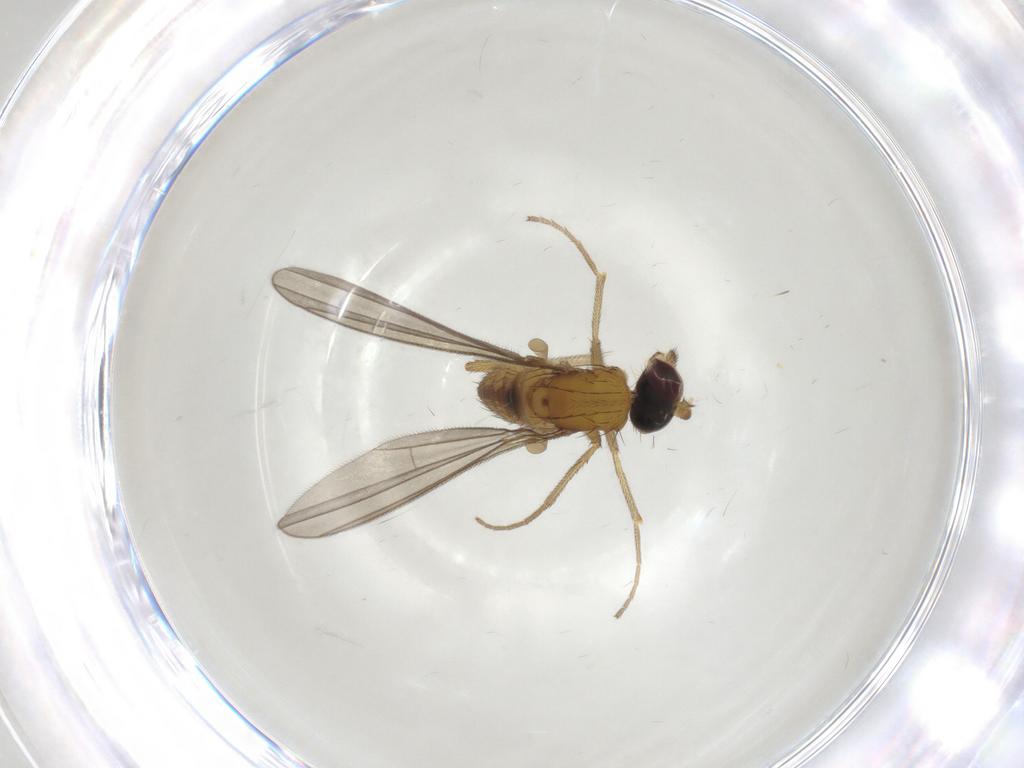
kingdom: Animalia
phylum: Arthropoda
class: Insecta
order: Diptera
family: Dolichopodidae
